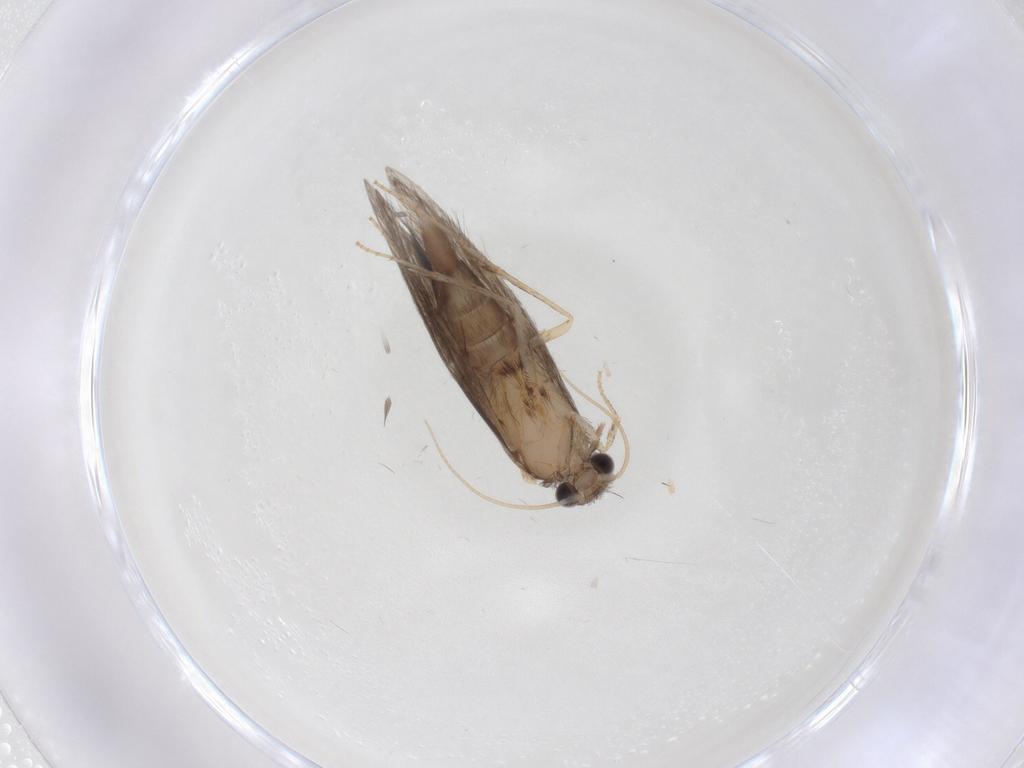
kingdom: Animalia
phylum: Arthropoda
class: Insecta
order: Trichoptera
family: Hydroptilidae
